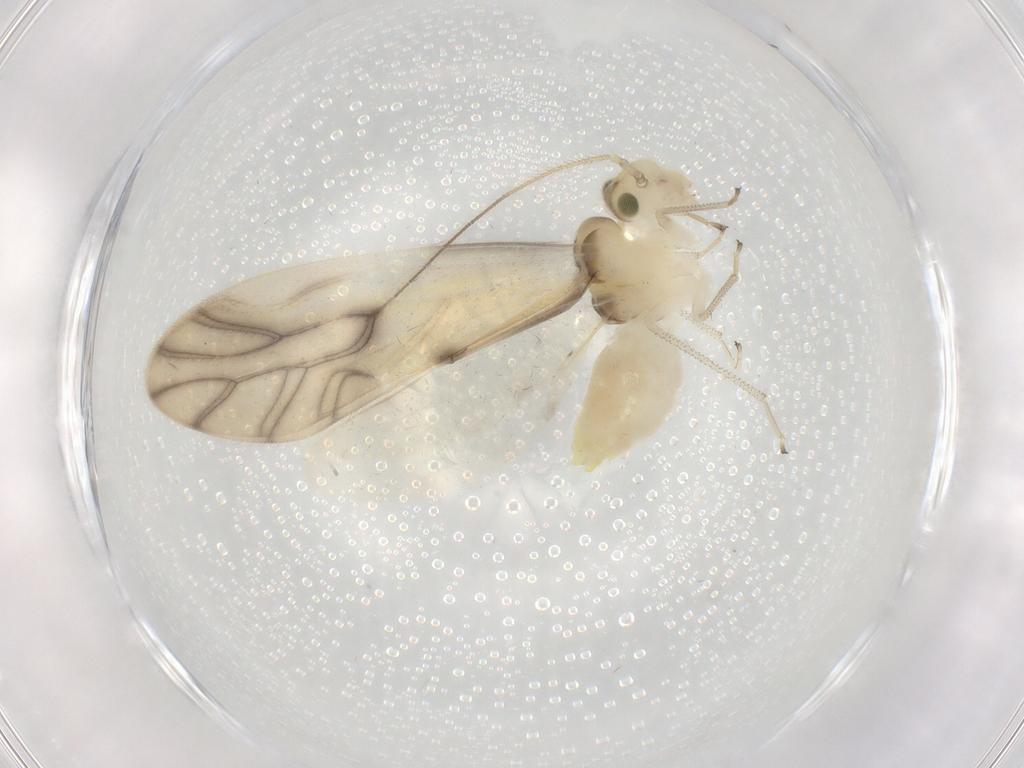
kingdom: Animalia
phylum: Arthropoda
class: Insecta
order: Psocodea
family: Caeciliusidae
